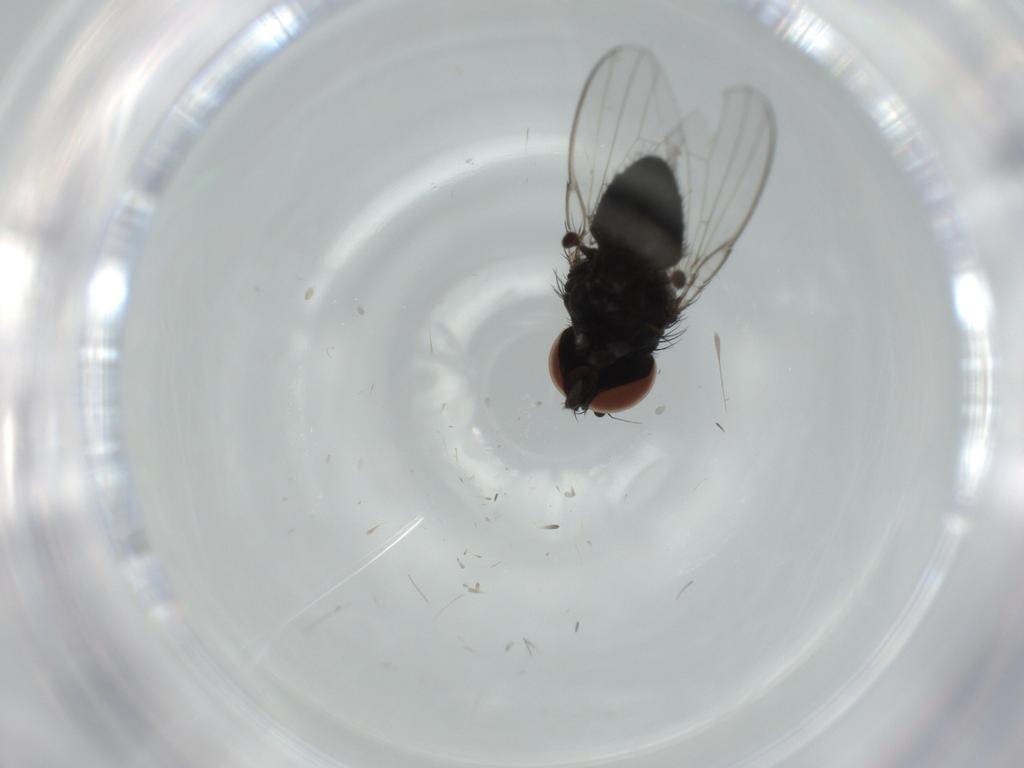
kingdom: Animalia
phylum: Arthropoda
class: Insecta
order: Diptera
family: Milichiidae
